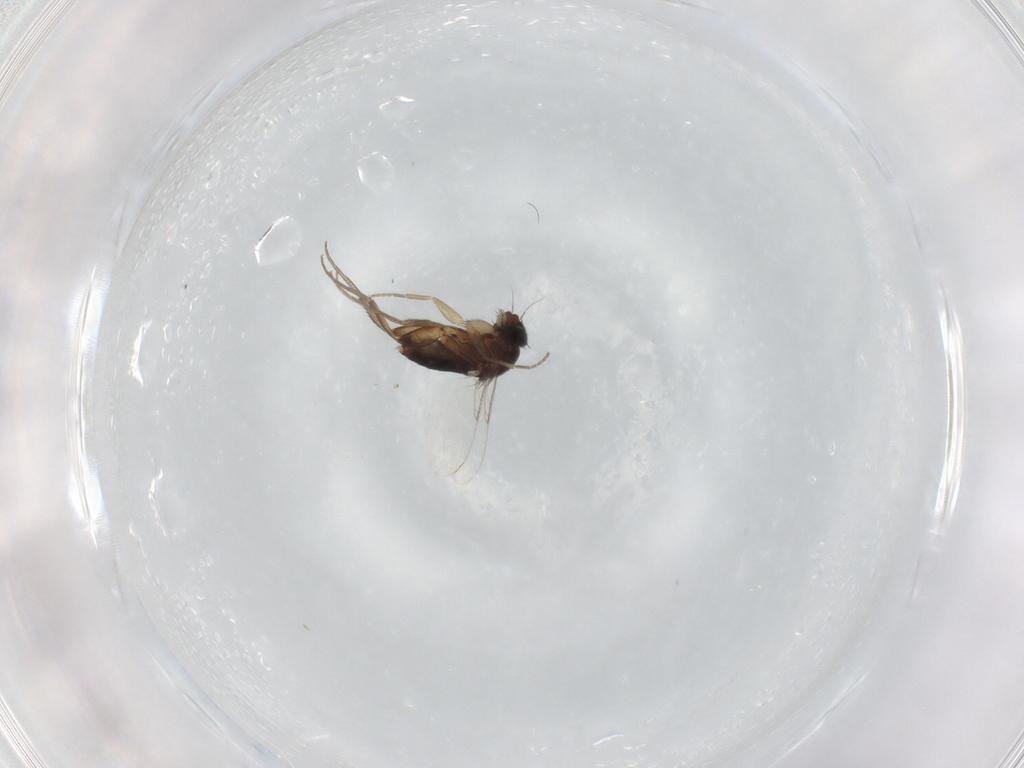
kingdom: Animalia
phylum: Arthropoda
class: Insecta
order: Diptera
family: Phoridae
